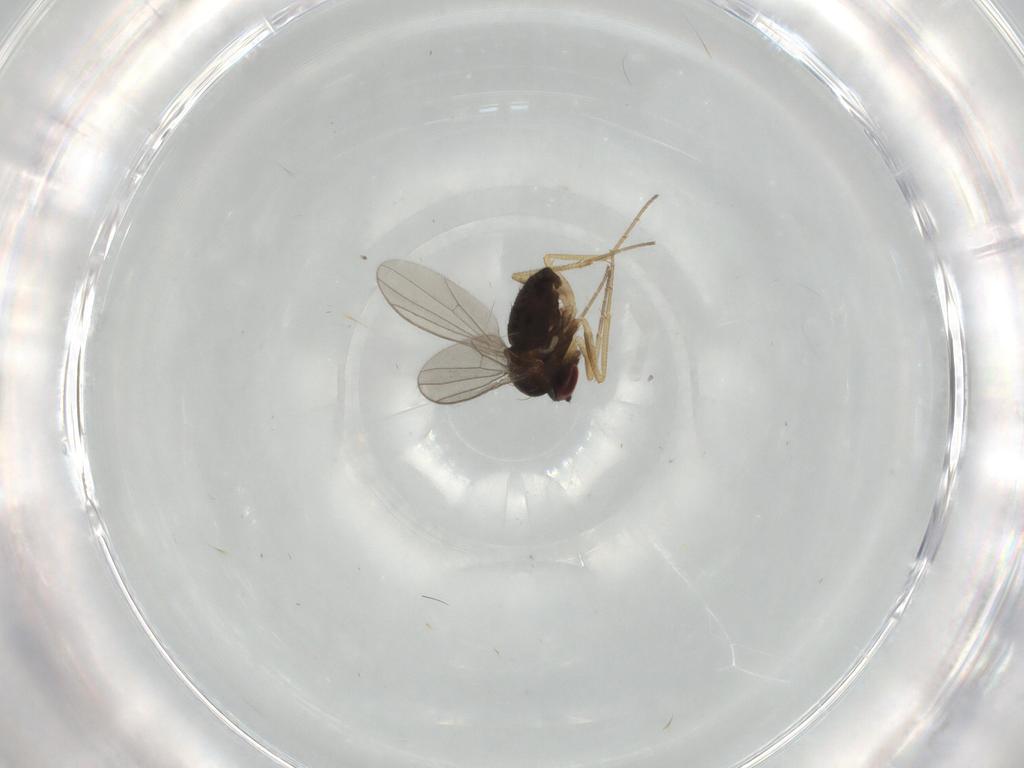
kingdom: Animalia
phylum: Arthropoda
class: Insecta
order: Diptera
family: Dolichopodidae
